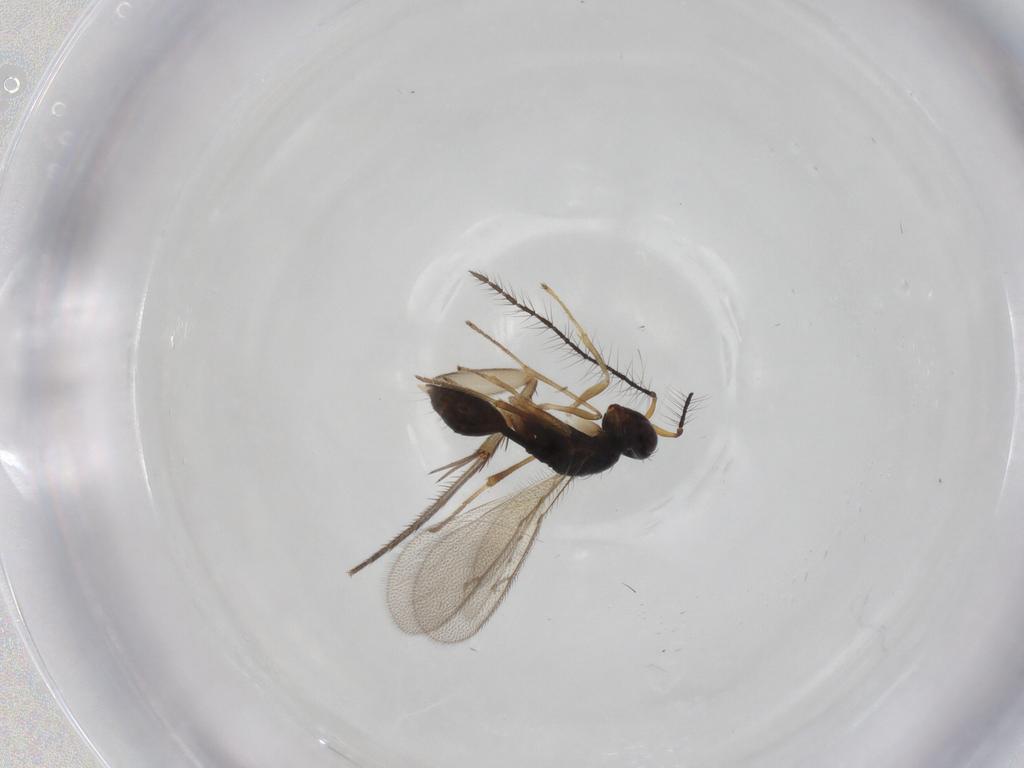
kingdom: Animalia
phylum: Arthropoda
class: Insecta
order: Hymenoptera
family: Diparidae
